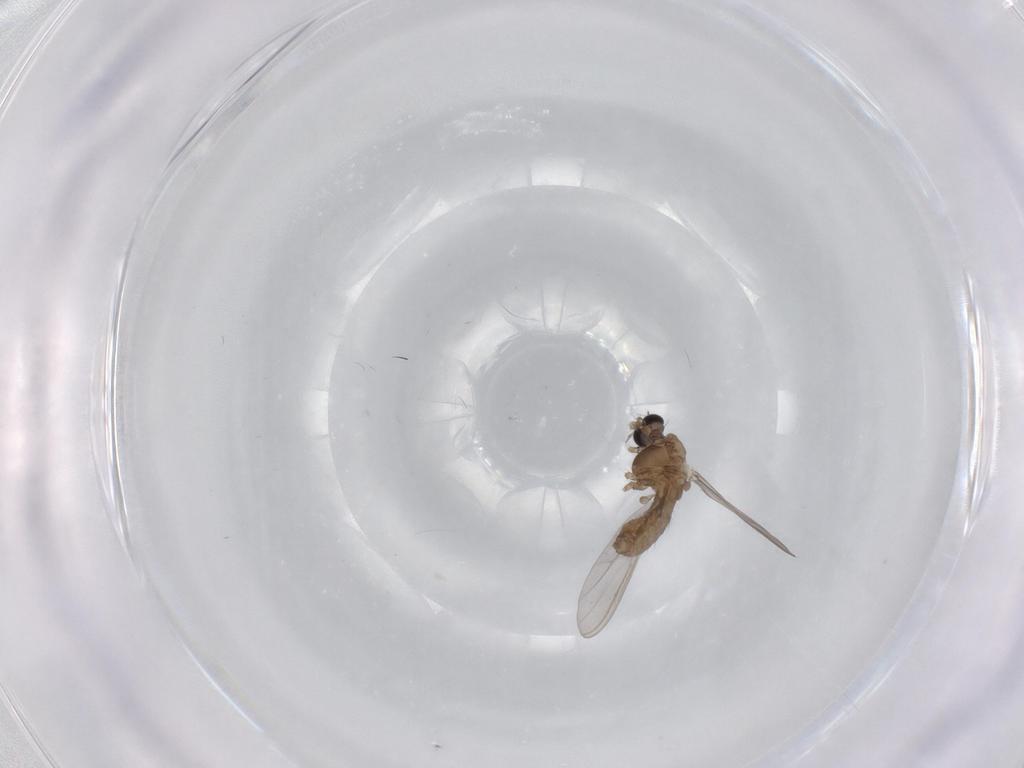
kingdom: Animalia
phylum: Arthropoda
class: Insecta
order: Diptera
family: Chironomidae
